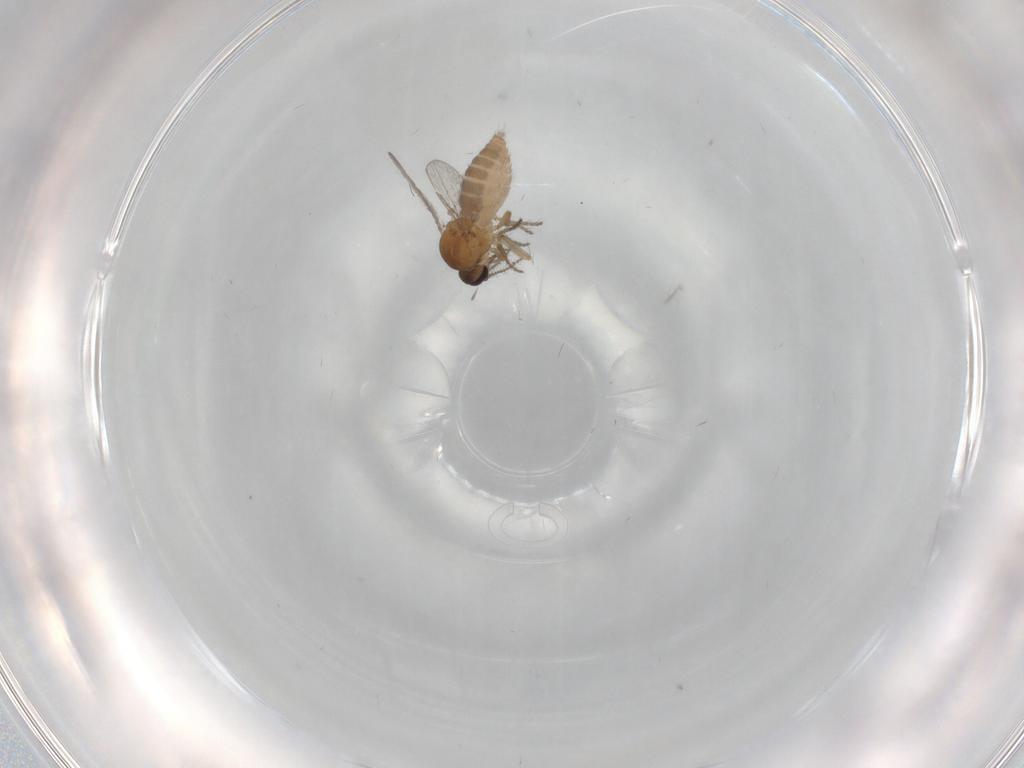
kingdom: Animalia
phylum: Arthropoda
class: Insecta
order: Diptera
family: Ceratopogonidae
